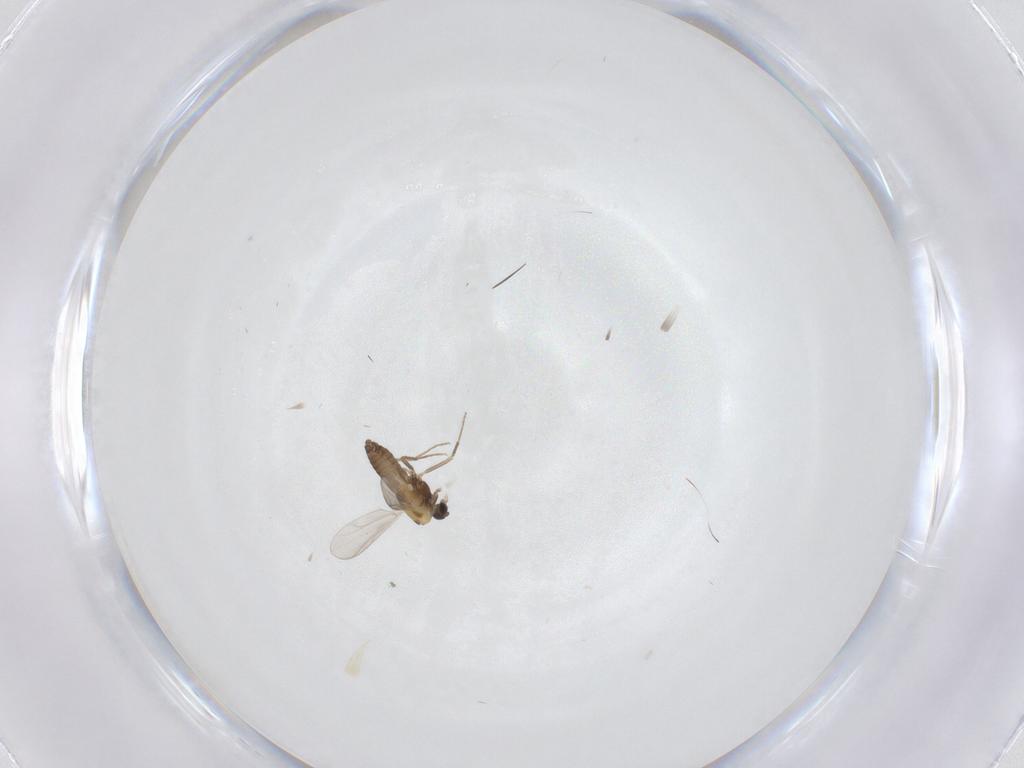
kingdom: Animalia
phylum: Arthropoda
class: Insecta
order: Diptera
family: Chironomidae
